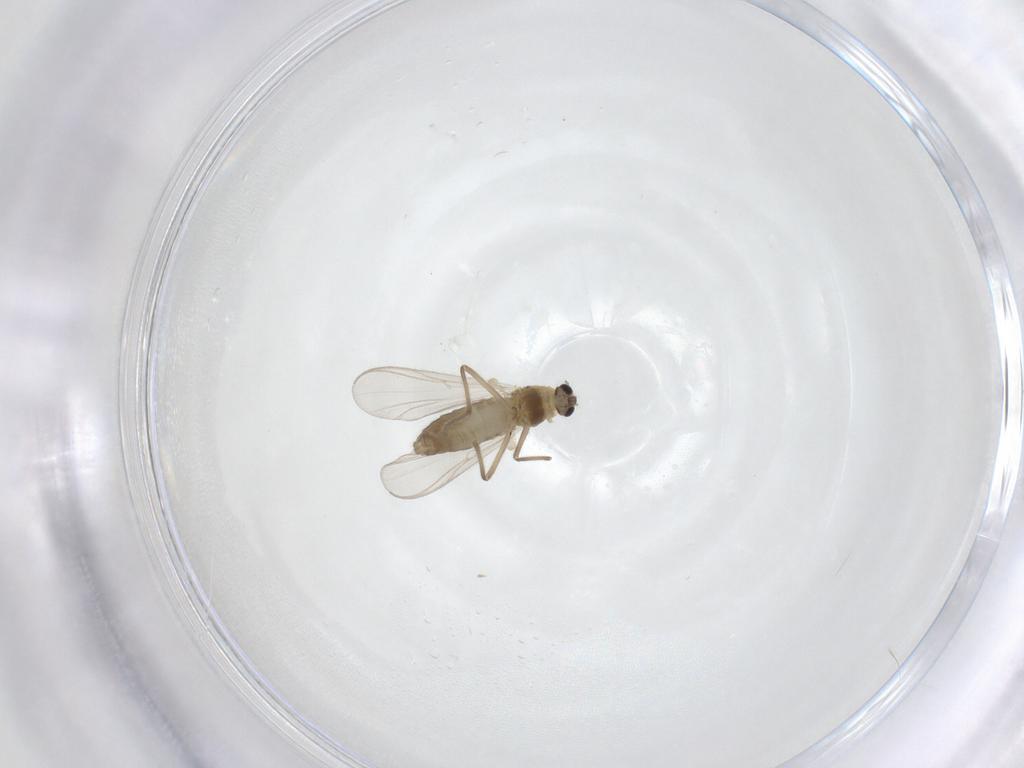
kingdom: Animalia
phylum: Arthropoda
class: Insecta
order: Diptera
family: Chironomidae
